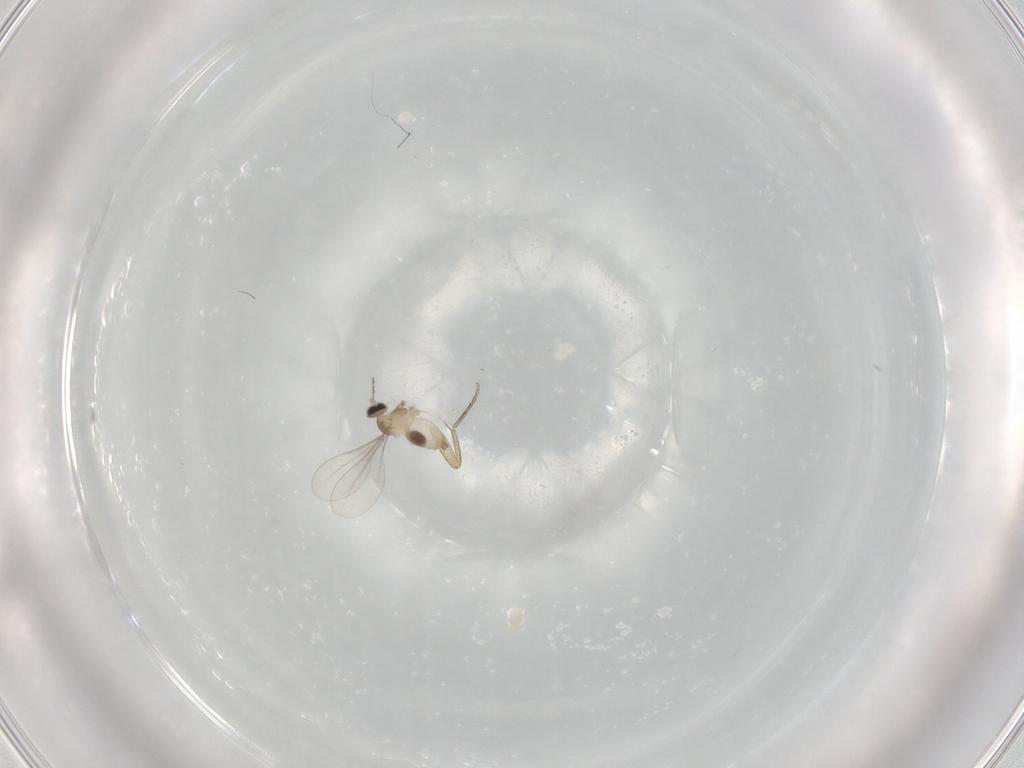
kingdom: Animalia
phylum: Arthropoda
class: Insecta
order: Diptera
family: Cecidomyiidae
